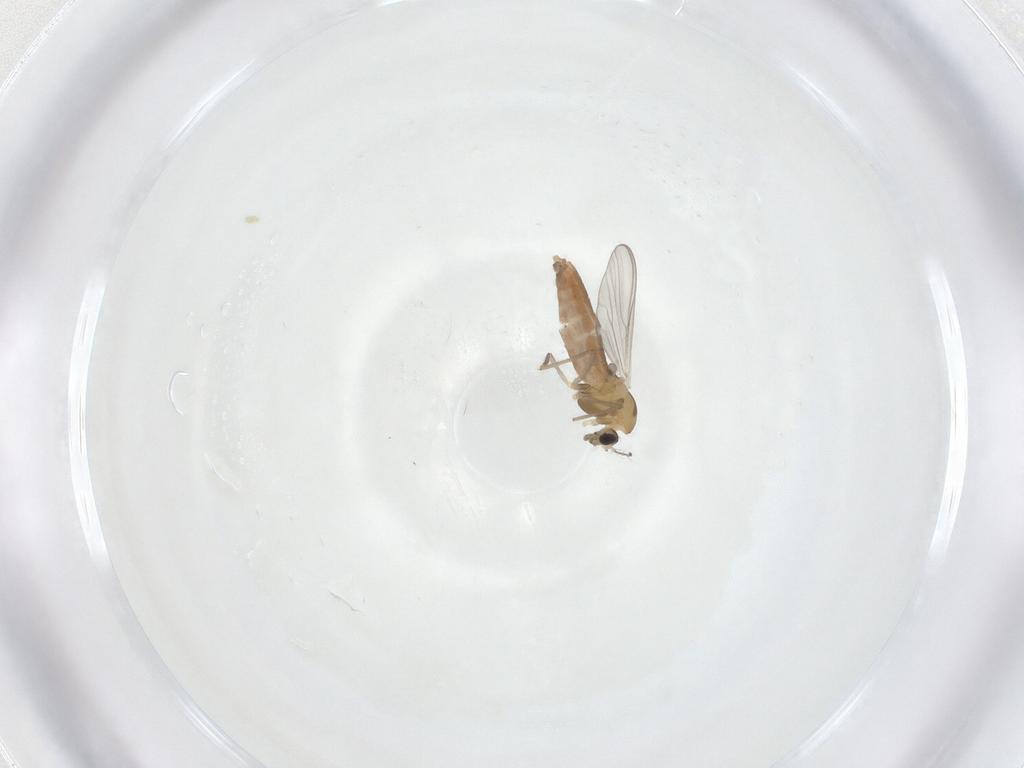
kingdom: Animalia
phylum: Arthropoda
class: Insecta
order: Diptera
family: Chironomidae
